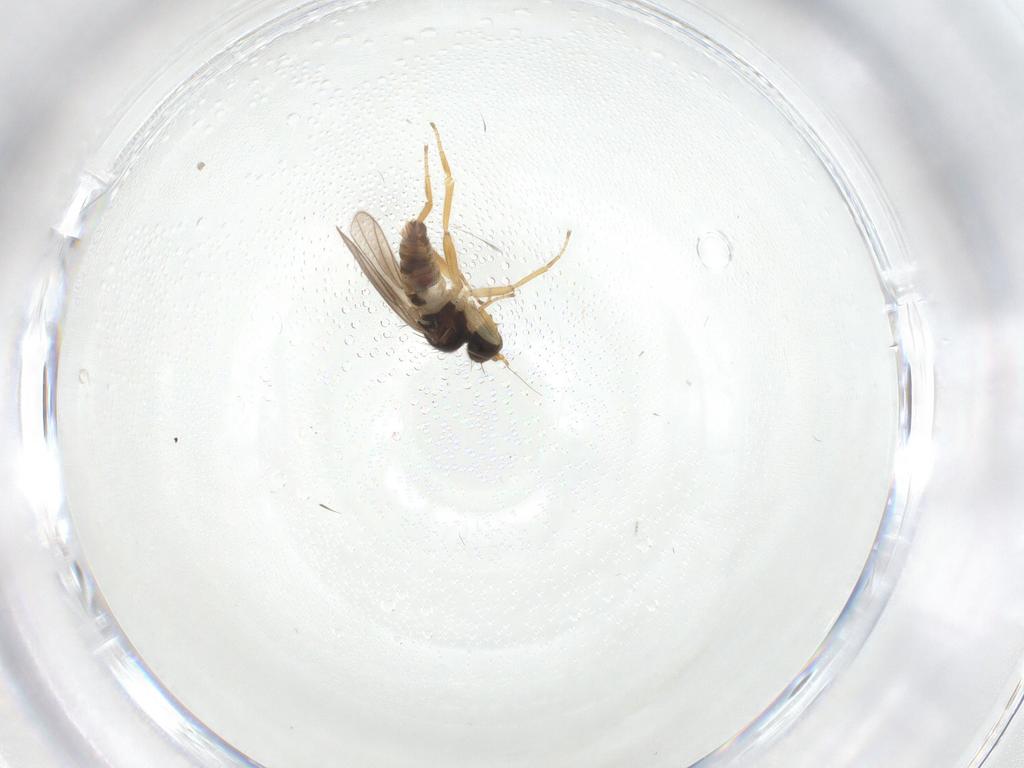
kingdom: Animalia
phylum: Arthropoda
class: Insecta
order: Diptera
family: Hybotidae
